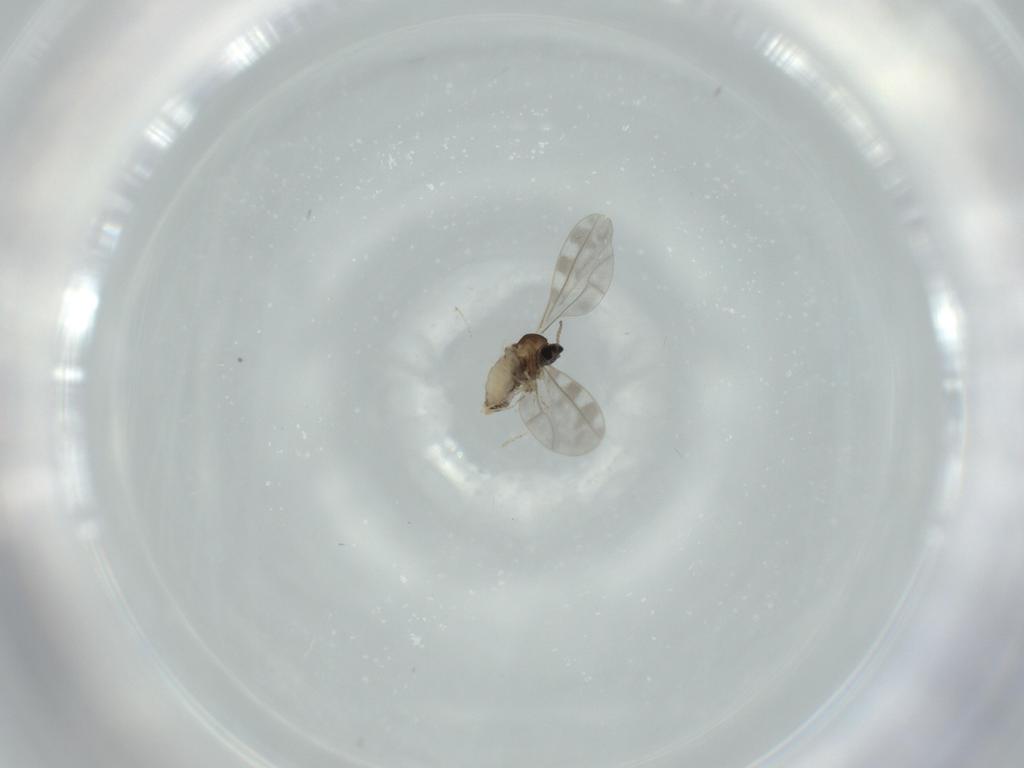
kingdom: Animalia
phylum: Arthropoda
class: Insecta
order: Diptera
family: Cecidomyiidae
